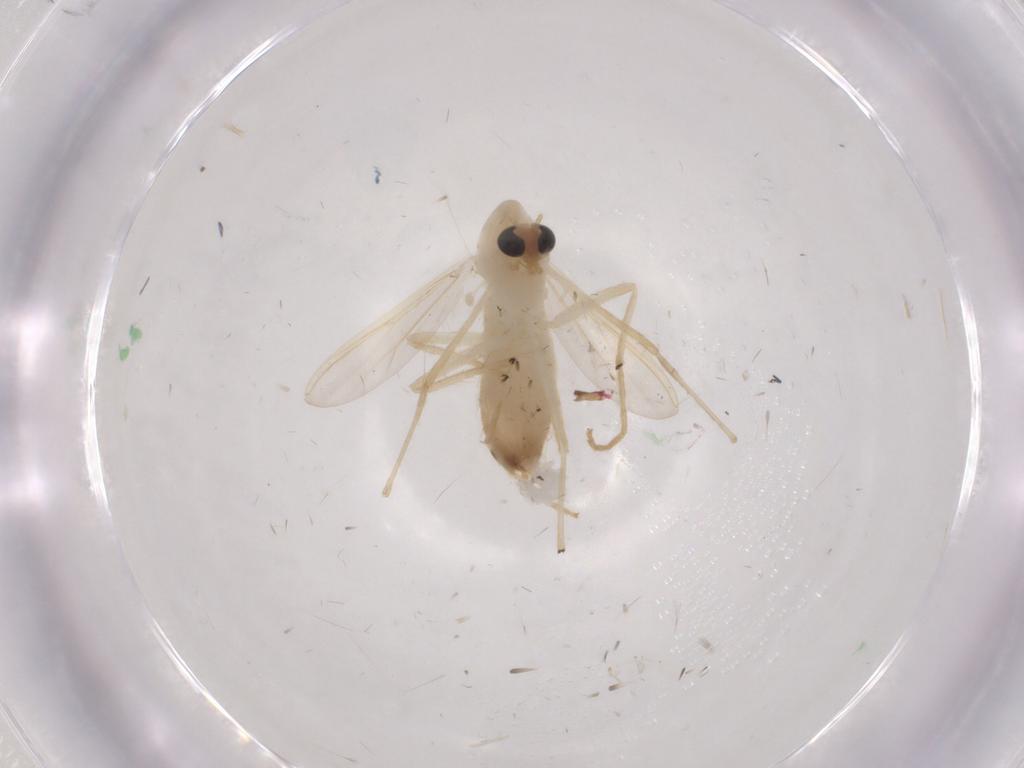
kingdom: Animalia
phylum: Arthropoda
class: Insecta
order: Diptera
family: Chironomidae
